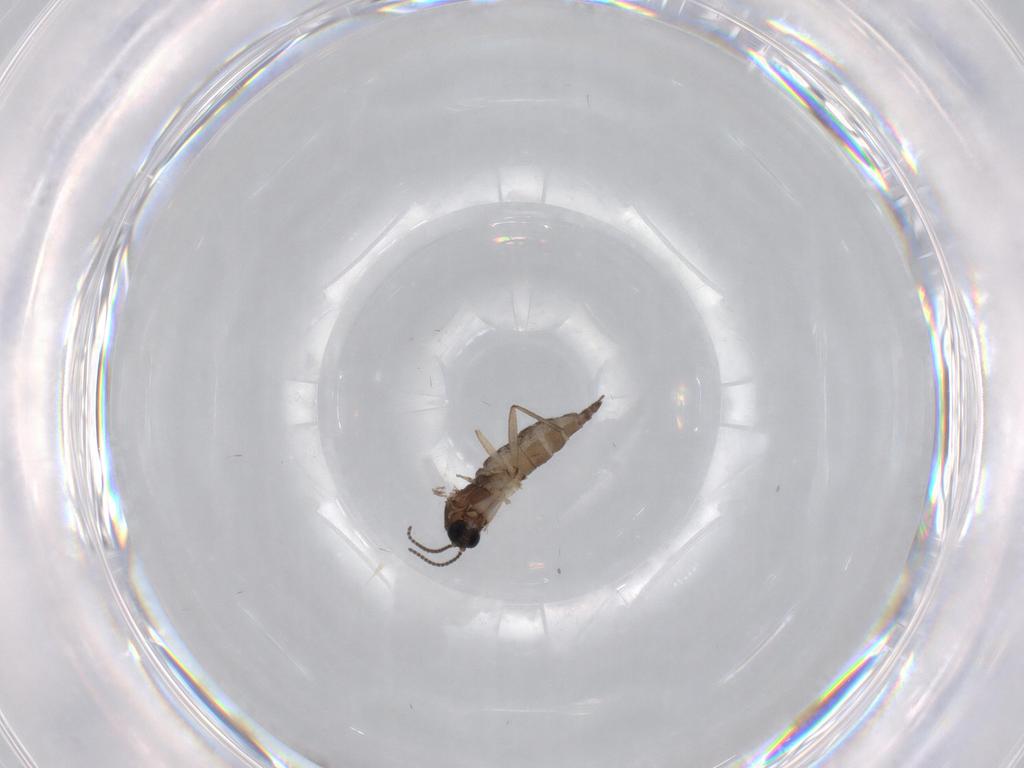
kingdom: Animalia
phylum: Arthropoda
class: Insecta
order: Diptera
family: Sciaridae
